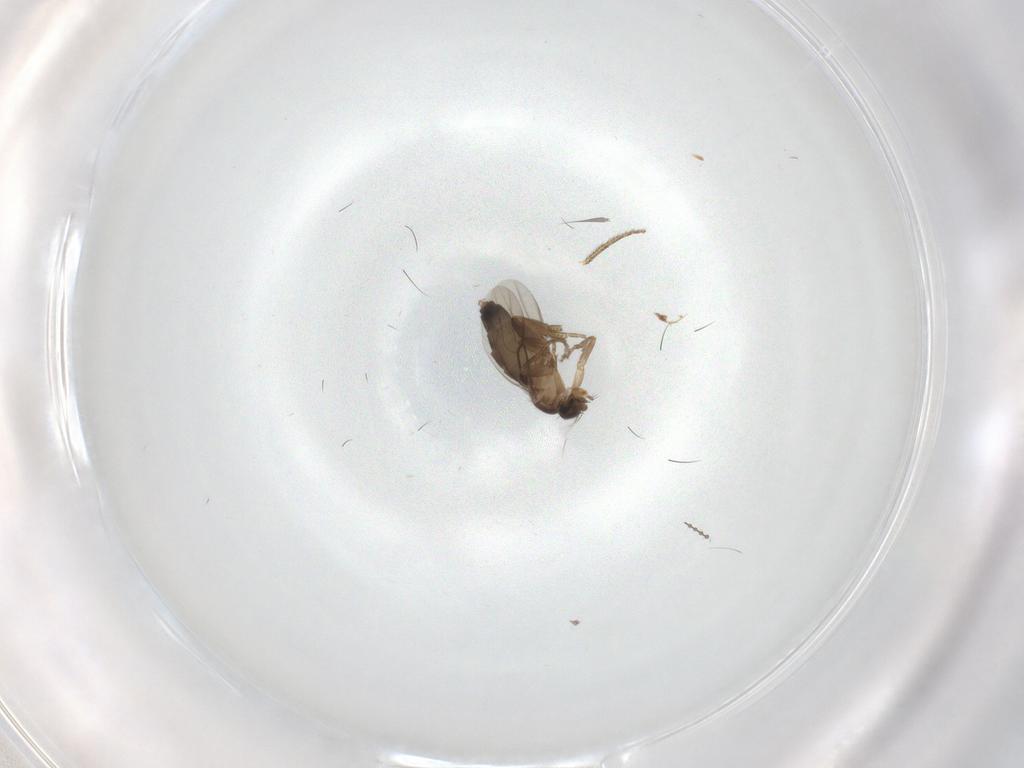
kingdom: Animalia
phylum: Arthropoda
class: Insecta
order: Diptera
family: Phoridae
